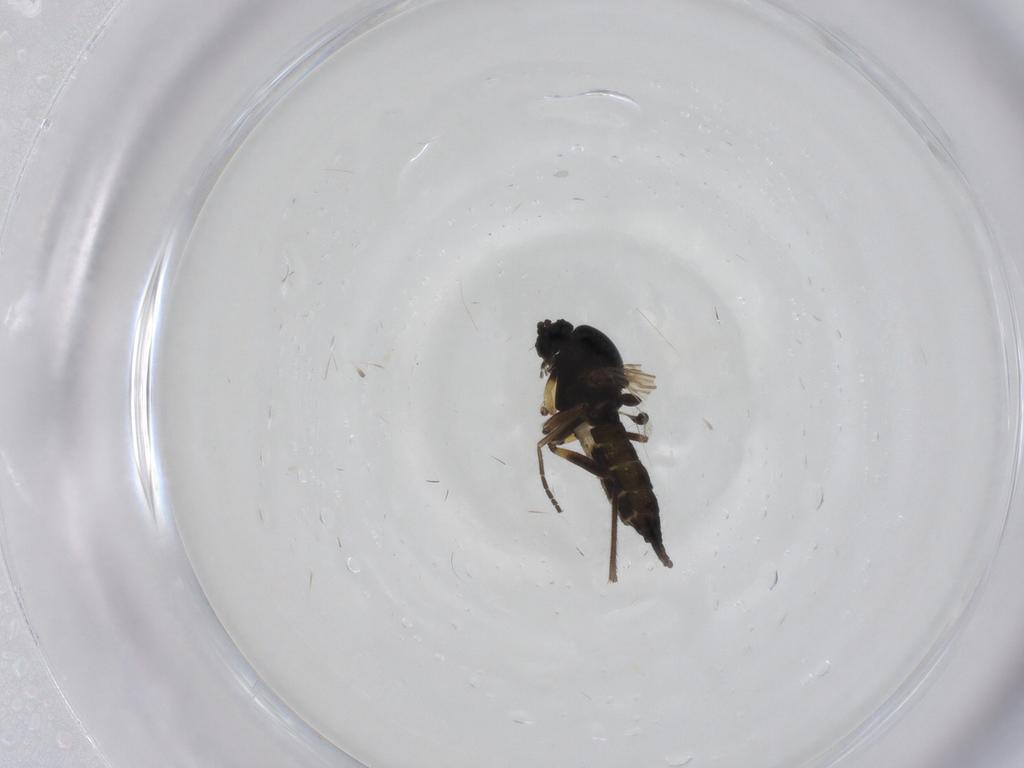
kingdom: Animalia
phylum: Arthropoda
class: Insecta
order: Diptera
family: Sciaridae
